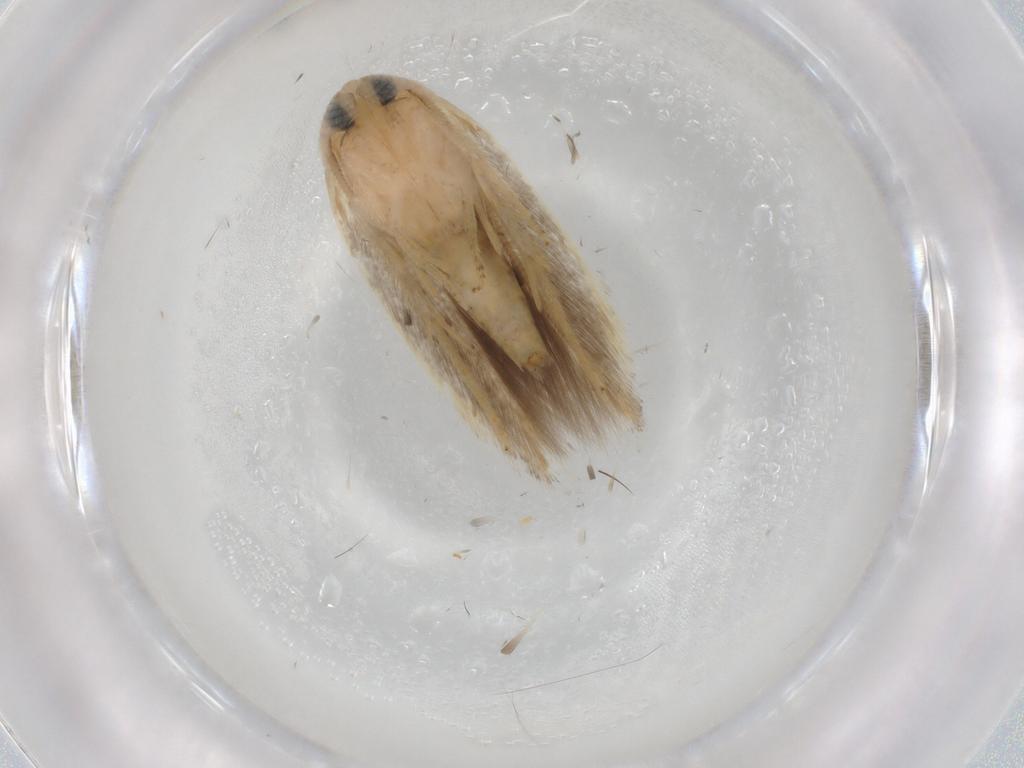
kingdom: Animalia
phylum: Arthropoda
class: Insecta
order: Lepidoptera
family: Opostegidae
